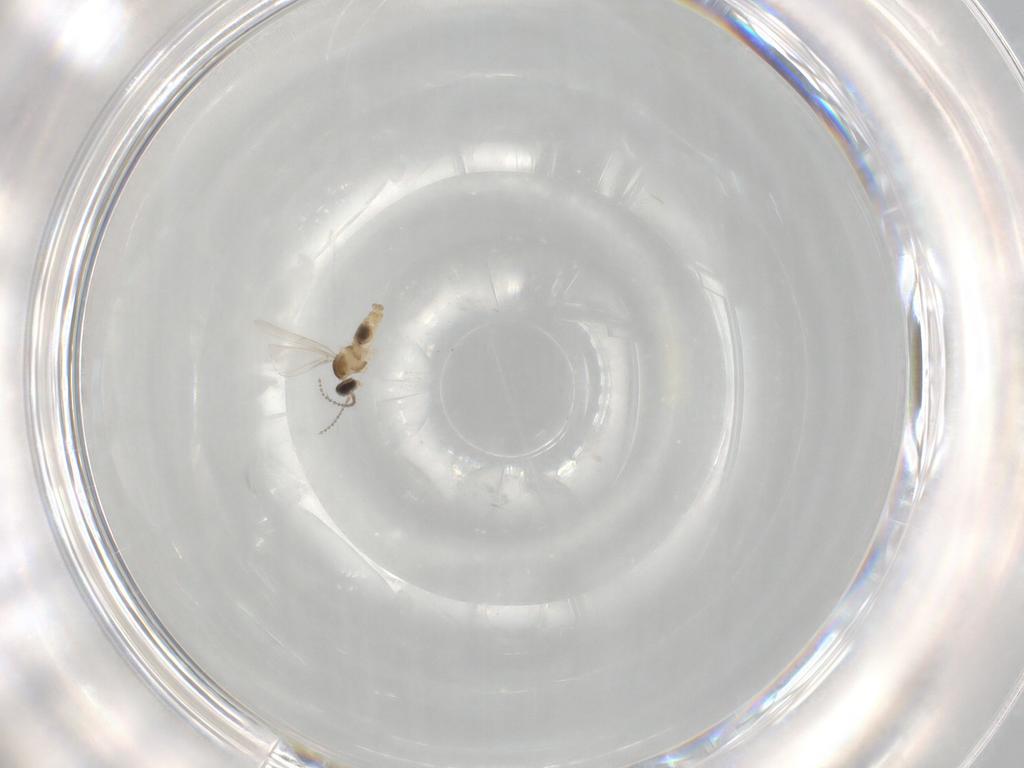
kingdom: Animalia
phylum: Arthropoda
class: Insecta
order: Diptera
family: Cecidomyiidae
